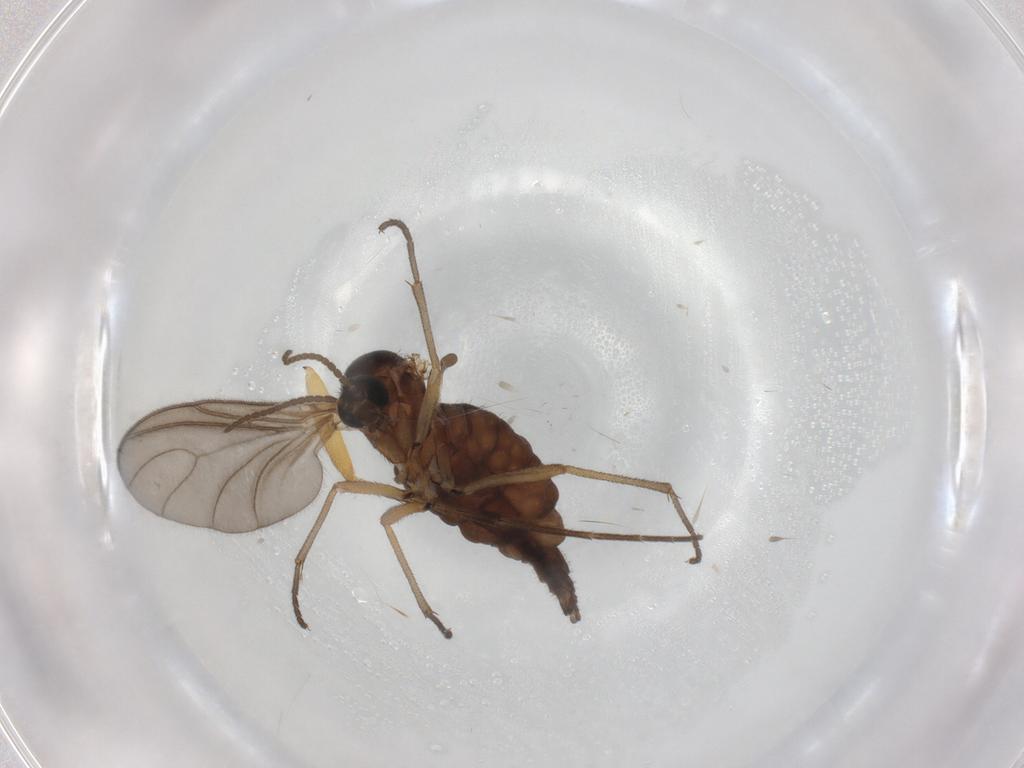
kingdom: Animalia
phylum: Arthropoda
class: Insecta
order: Diptera
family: Sciaridae
